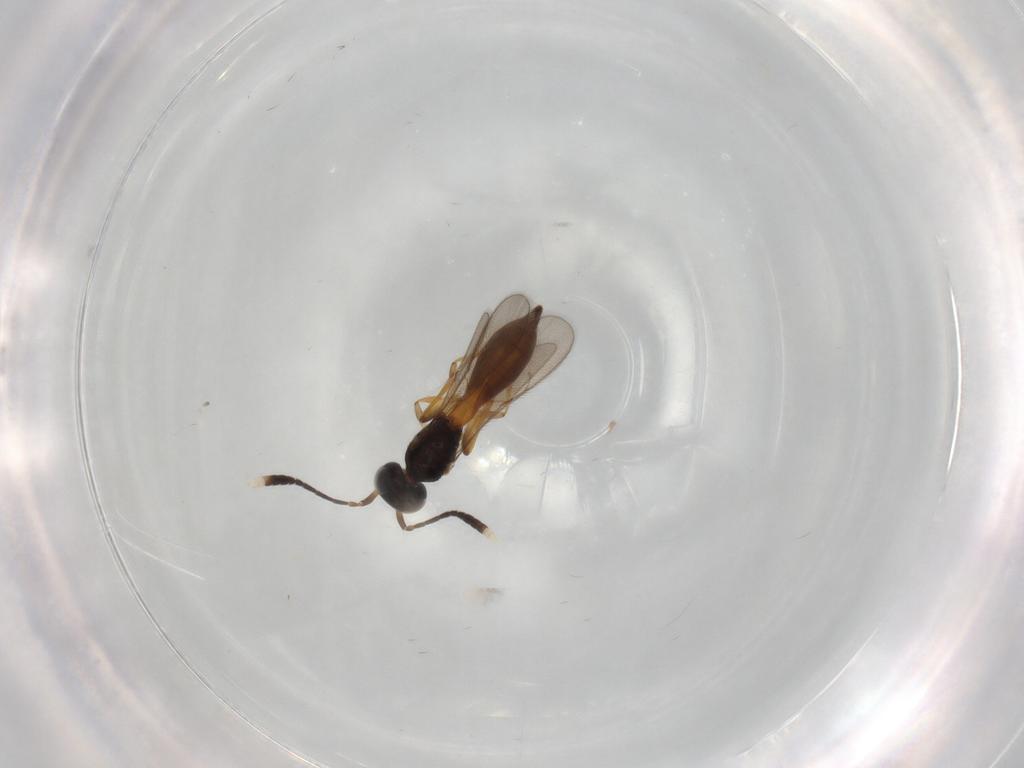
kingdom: Animalia
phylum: Arthropoda
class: Insecta
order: Hymenoptera
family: Scelionidae
